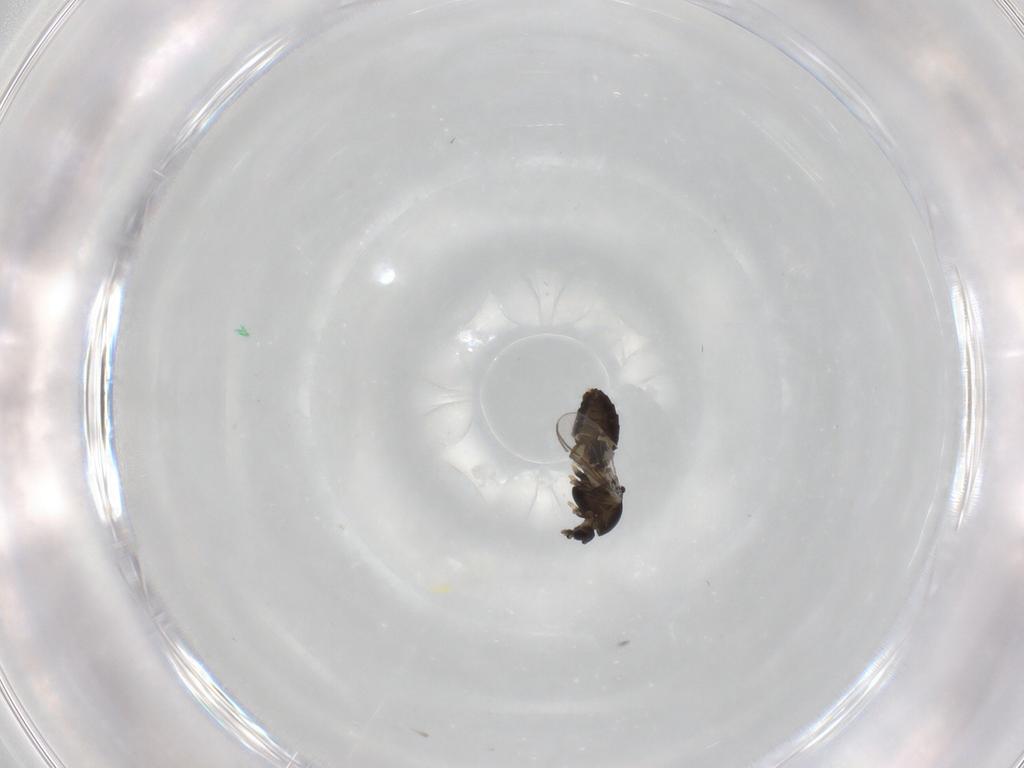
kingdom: Animalia
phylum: Arthropoda
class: Insecta
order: Diptera
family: Chironomidae
